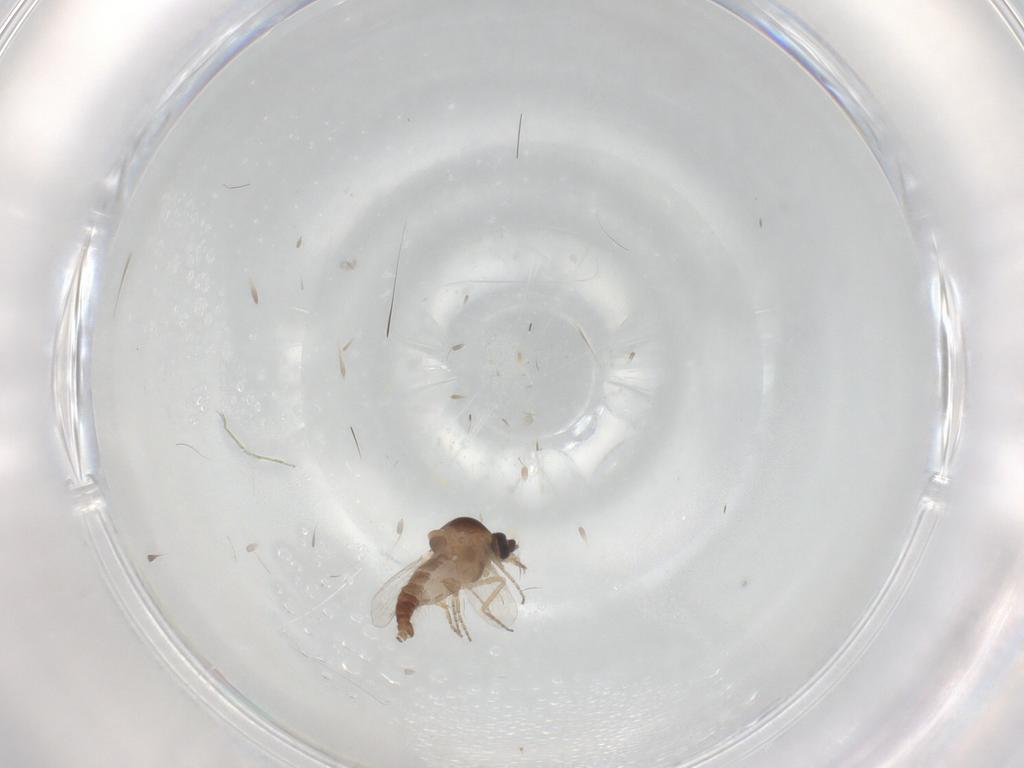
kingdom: Animalia
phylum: Arthropoda
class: Insecta
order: Diptera
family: Ceratopogonidae
